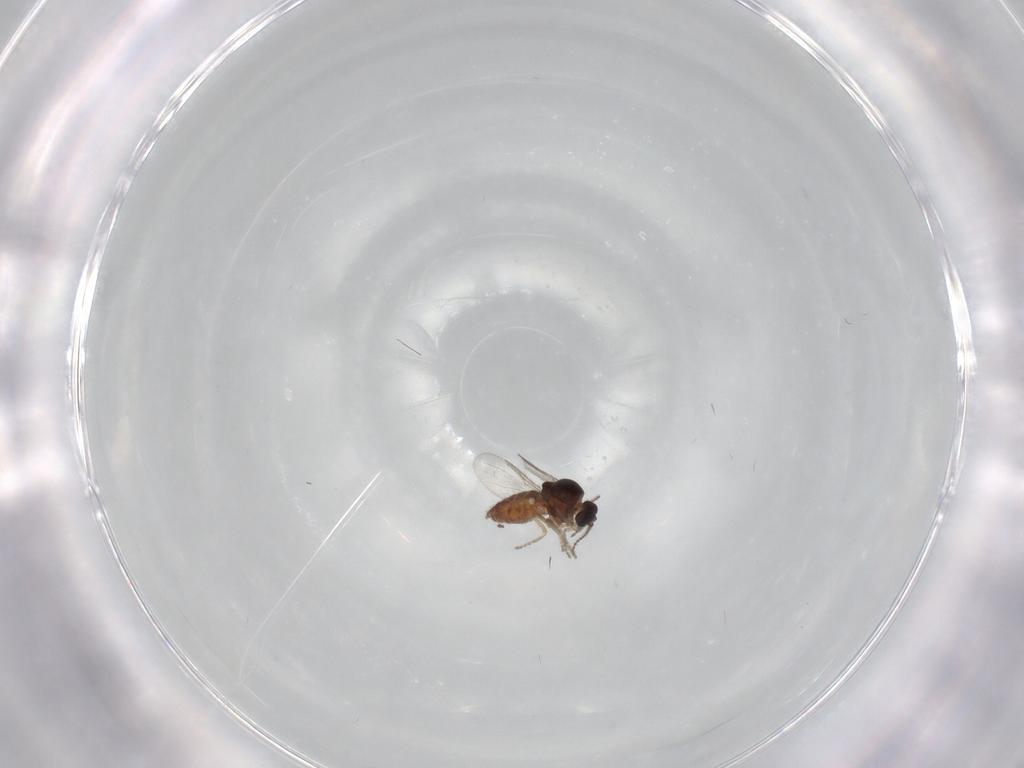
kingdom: Animalia
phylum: Arthropoda
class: Insecta
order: Diptera
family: Ceratopogonidae
